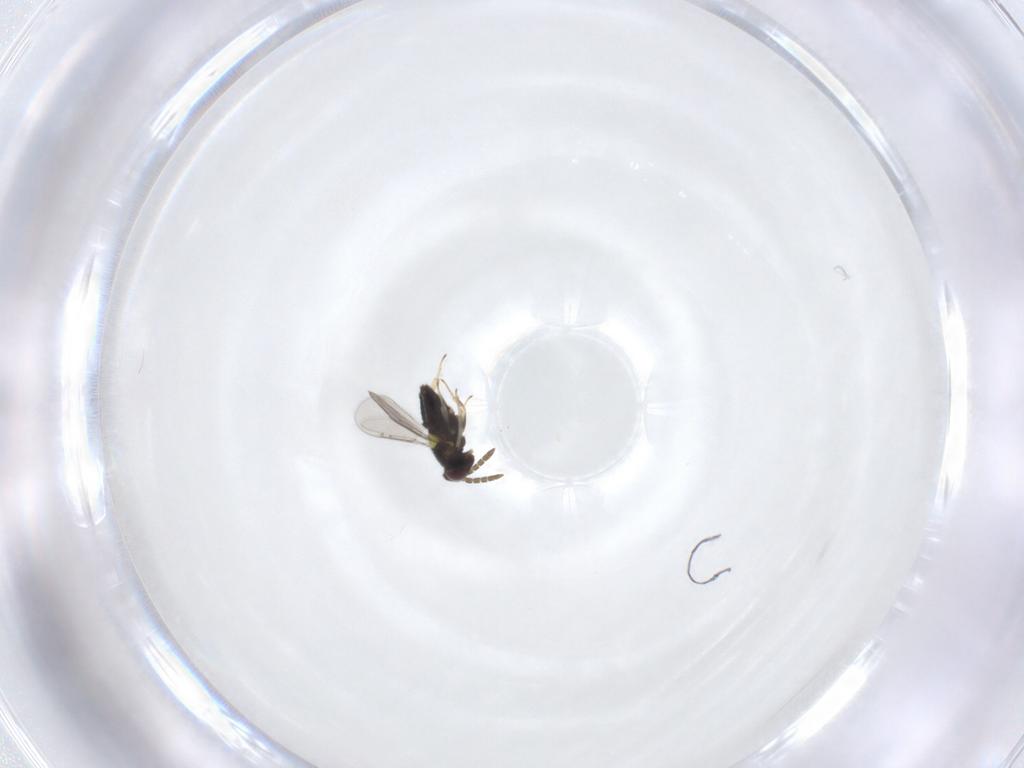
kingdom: Animalia
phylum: Arthropoda
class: Insecta
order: Hymenoptera
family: Aphelinidae
